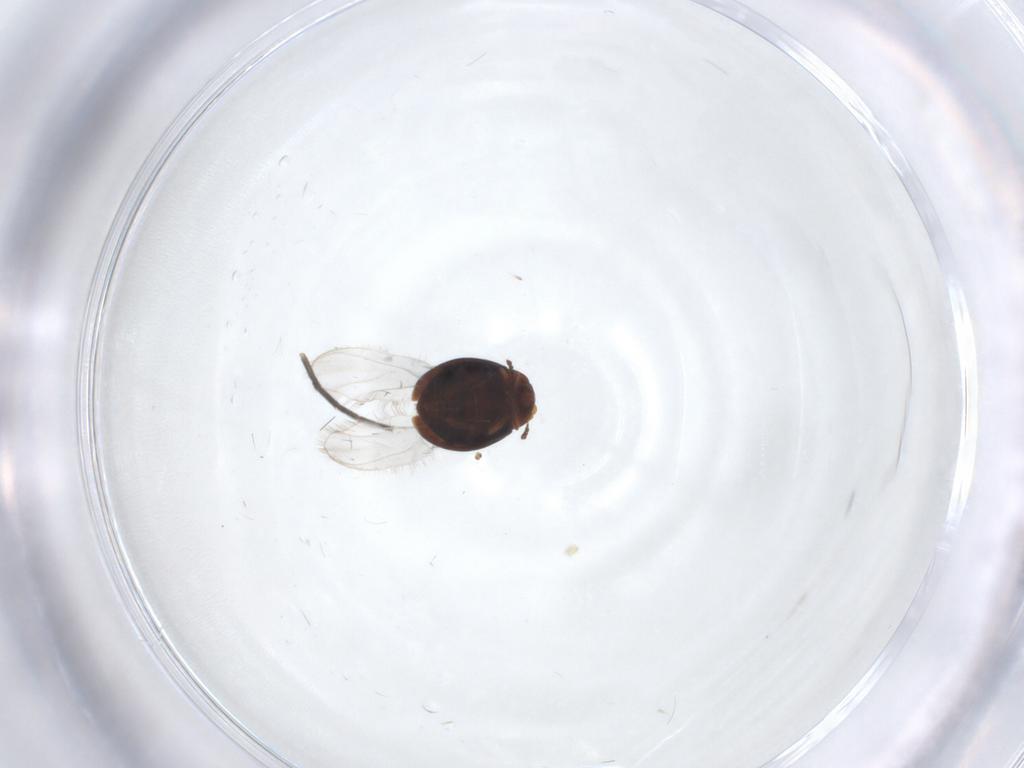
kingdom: Animalia
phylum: Arthropoda
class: Insecta
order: Coleoptera
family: Corylophidae
